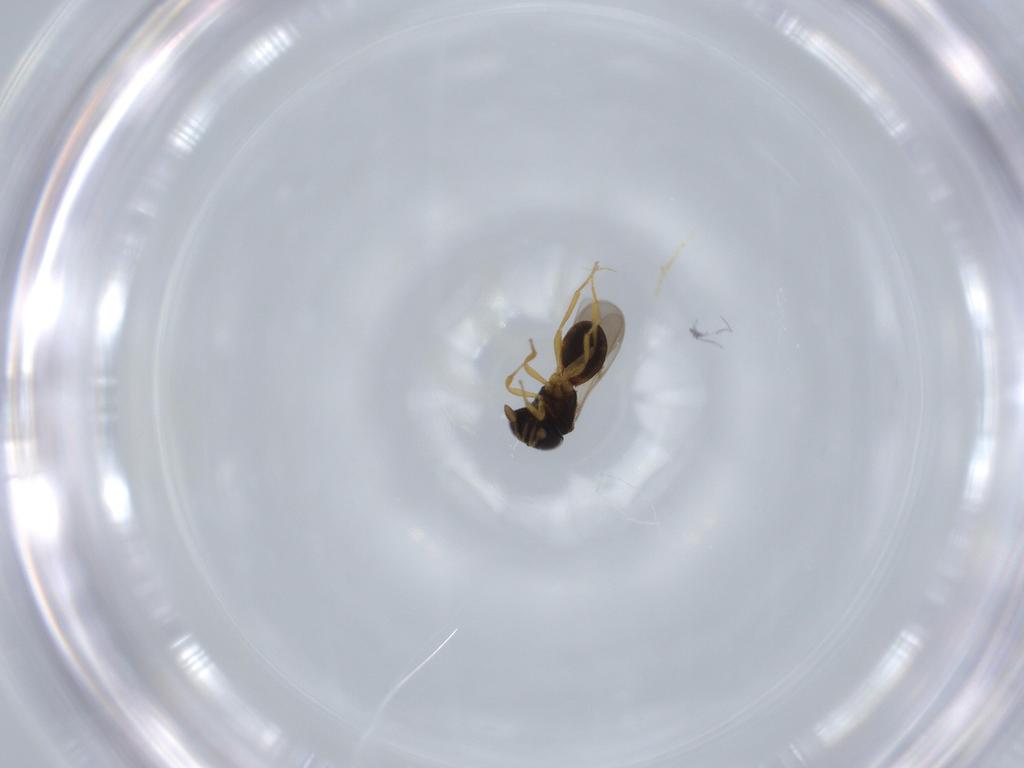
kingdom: Animalia
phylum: Arthropoda
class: Insecta
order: Hymenoptera
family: Scelionidae
